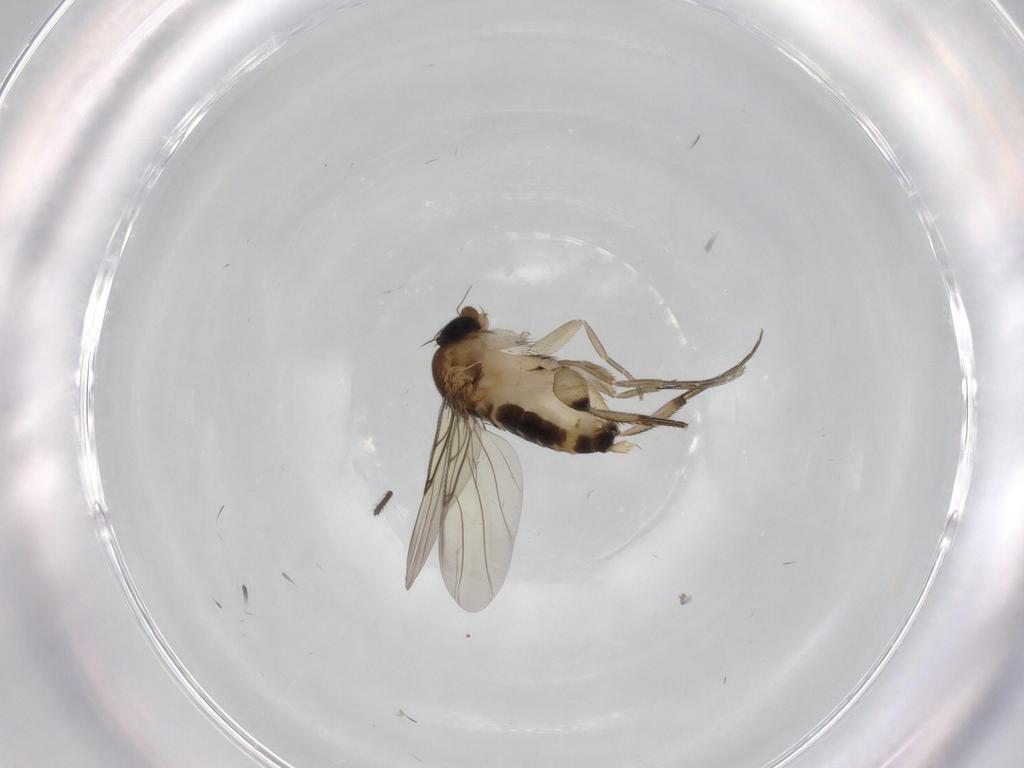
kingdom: Animalia
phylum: Arthropoda
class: Insecta
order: Diptera
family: Phoridae
